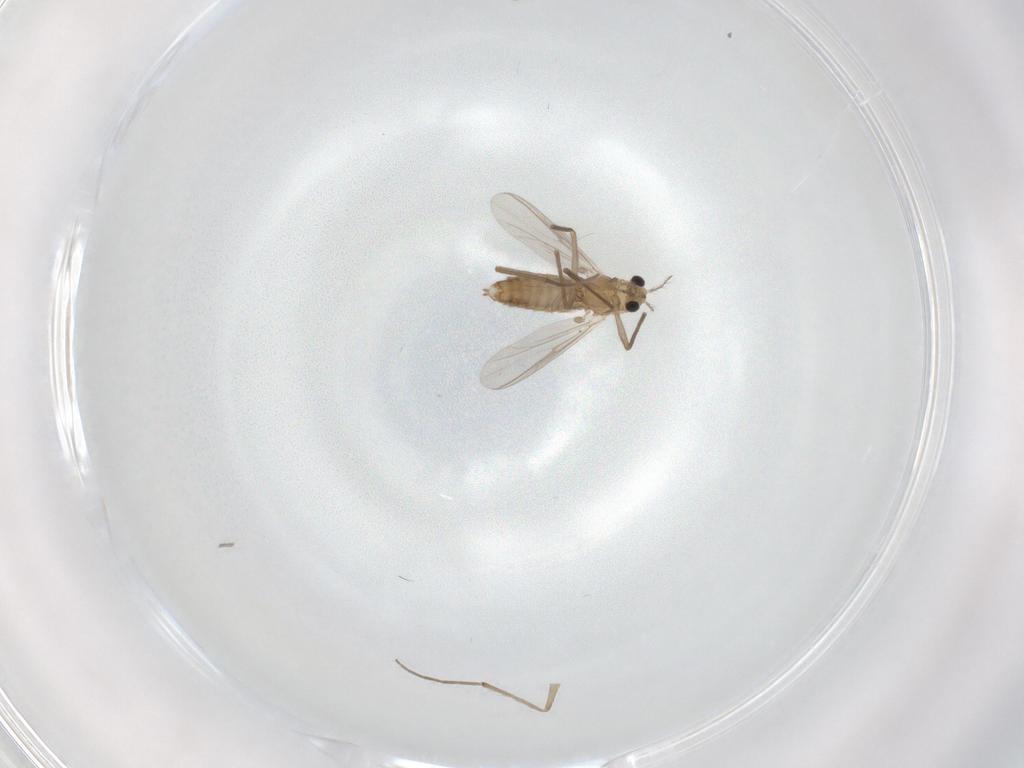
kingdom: Animalia
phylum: Arthropoda
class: Insecta
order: Diptera
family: Chironomidae
